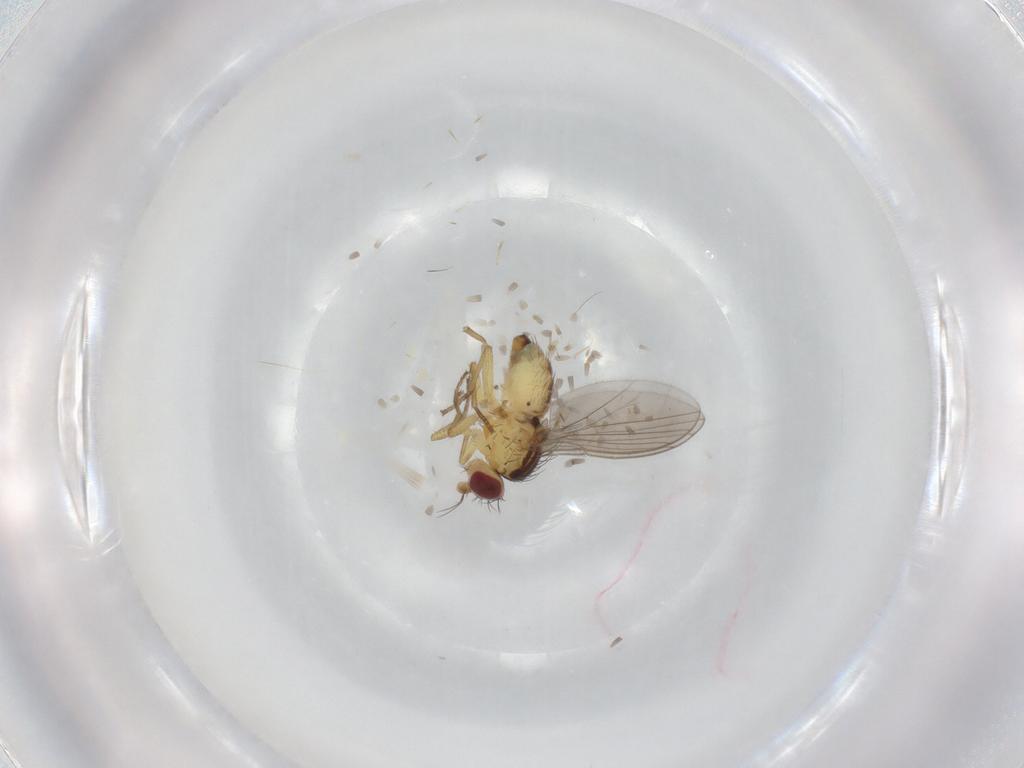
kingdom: Animalia
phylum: Arthropoda
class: Insecta
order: Diptera
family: Agromyzidae
